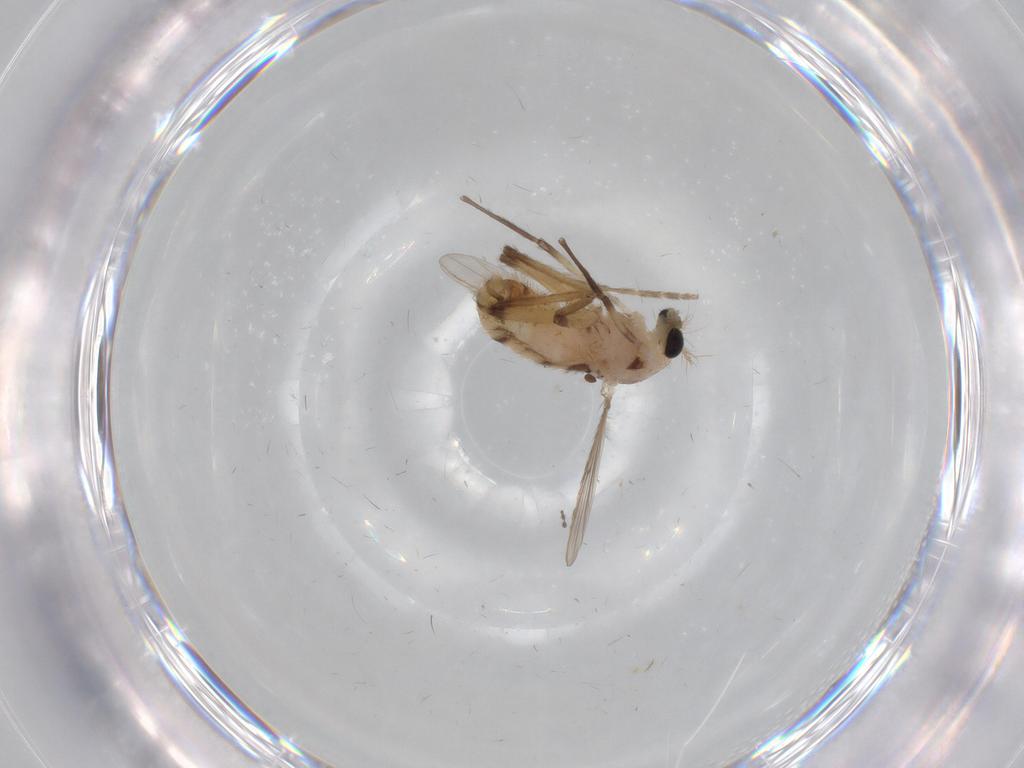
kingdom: Animalia
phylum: Arthropoda
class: Insecta
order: Diptera
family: Chironomidae
